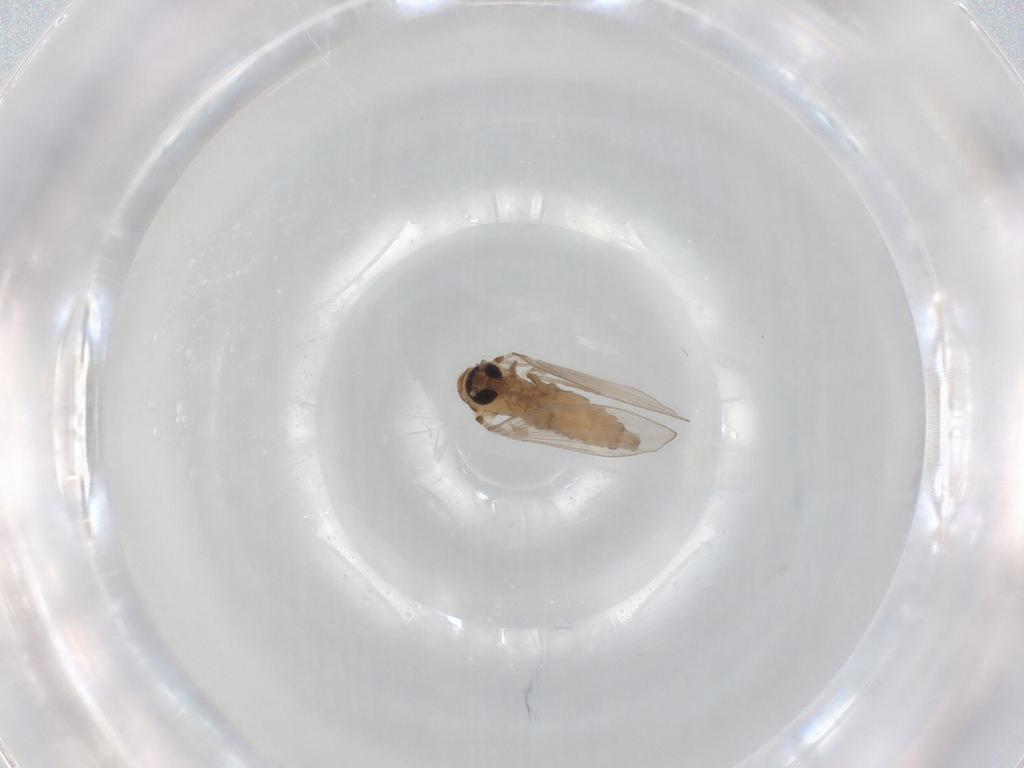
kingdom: Animalia
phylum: Arthropoda
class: Insecta
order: Diptera
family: Psychodidae
